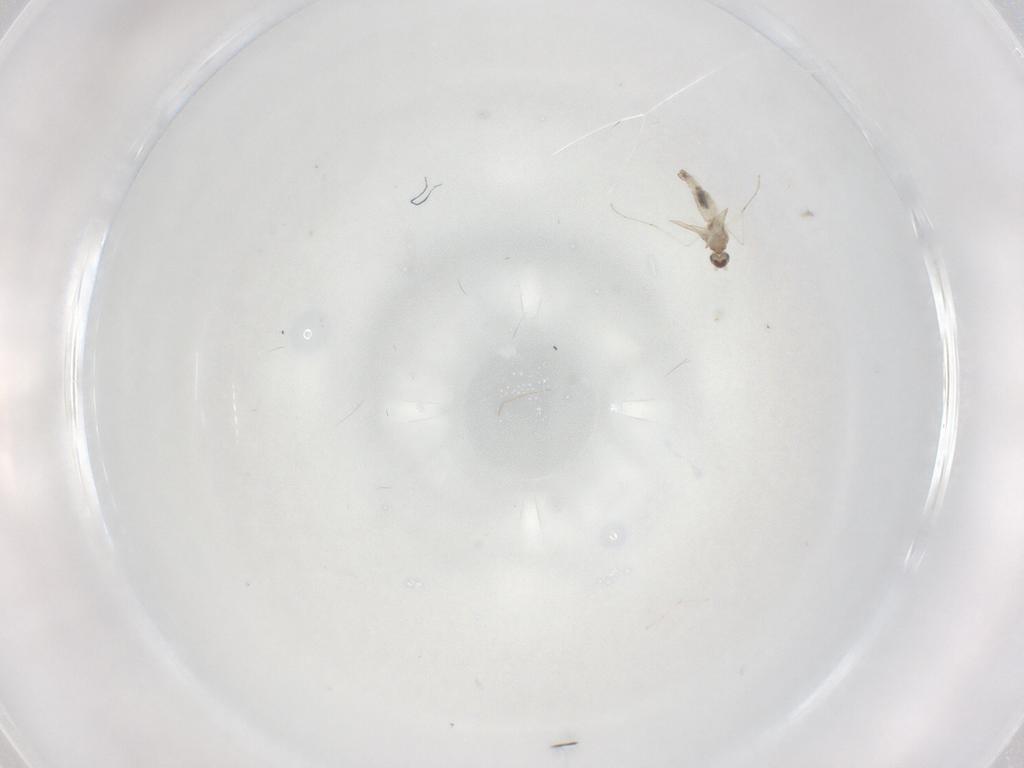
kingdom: Animalia
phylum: Arthropoda
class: Insecta
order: Diptera
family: Cecidomyiidae
